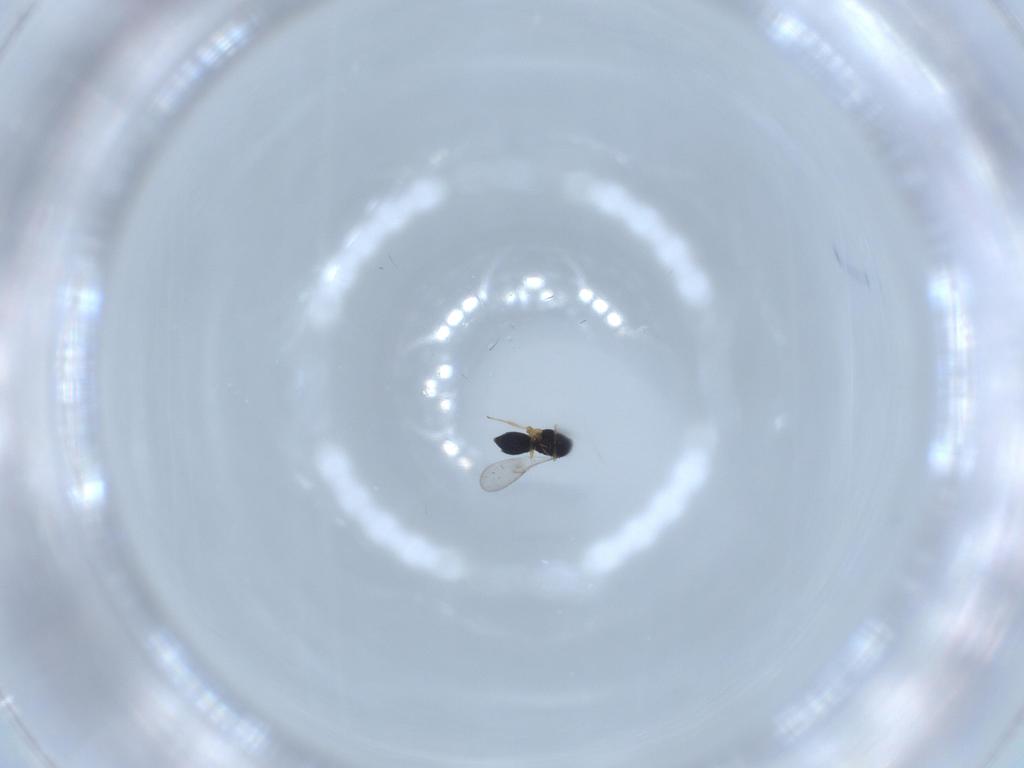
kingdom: Animalia
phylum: Arthropoda
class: Insecta
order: Hymenoptera
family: Scelionidae
